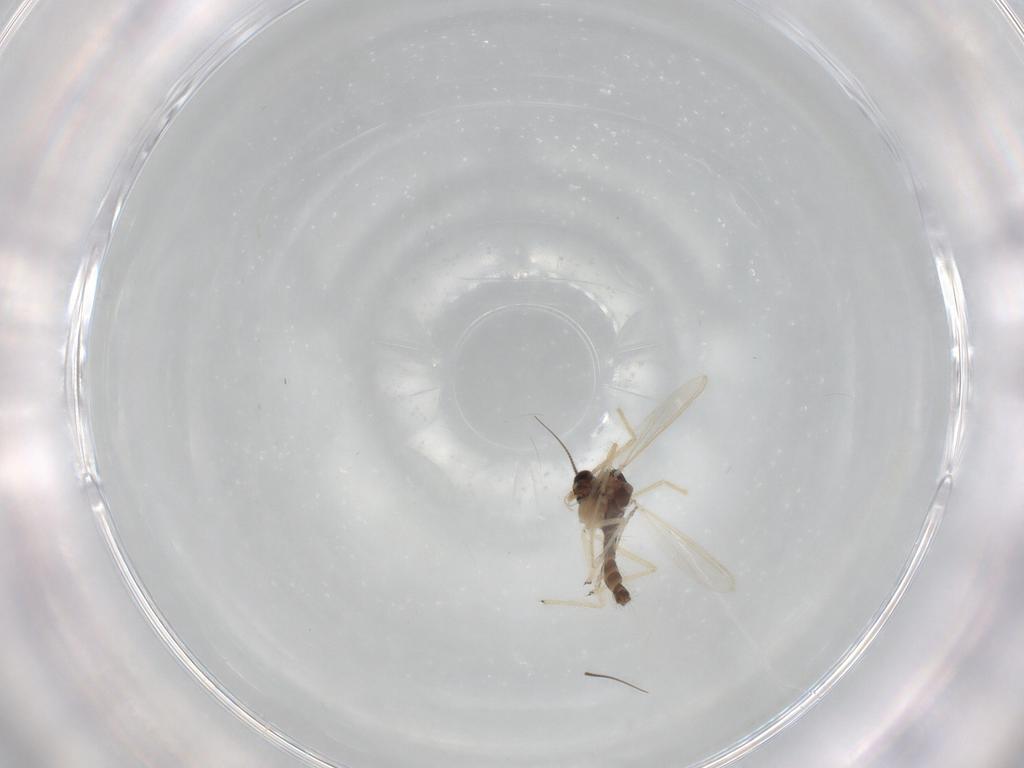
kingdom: Animalia
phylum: Arthropoda
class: Insecta
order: Diptera
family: Chironomidae
